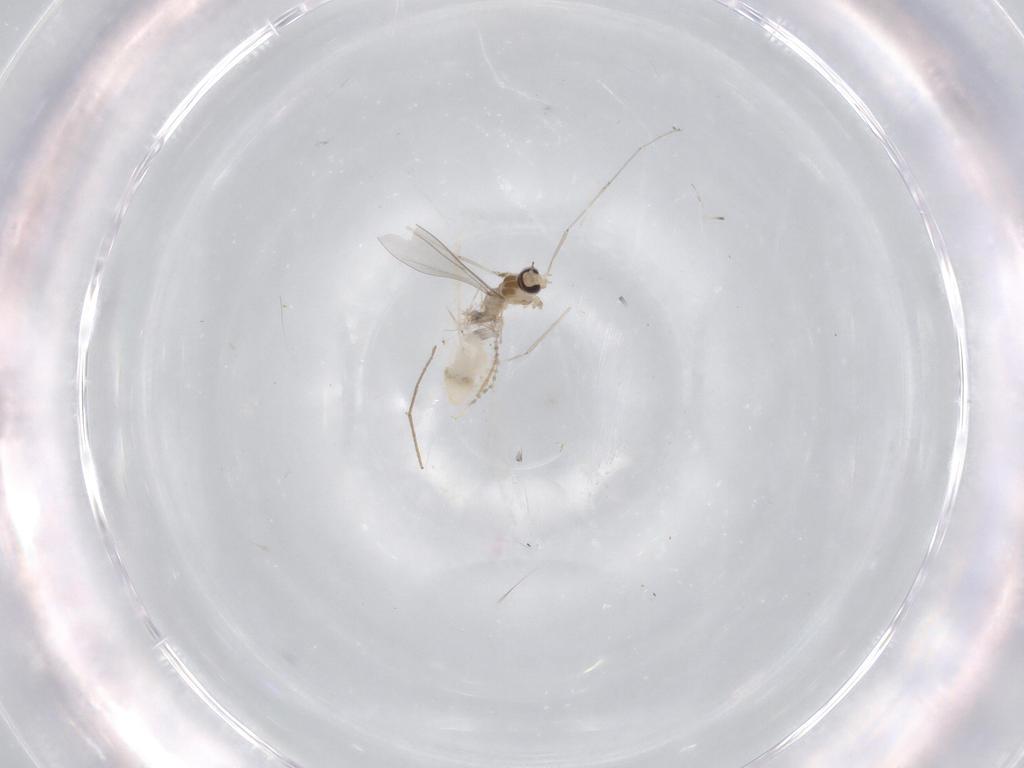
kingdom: Animalia
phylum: Arthropoda
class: Insecta
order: Diptera
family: Cecidomyiidae
